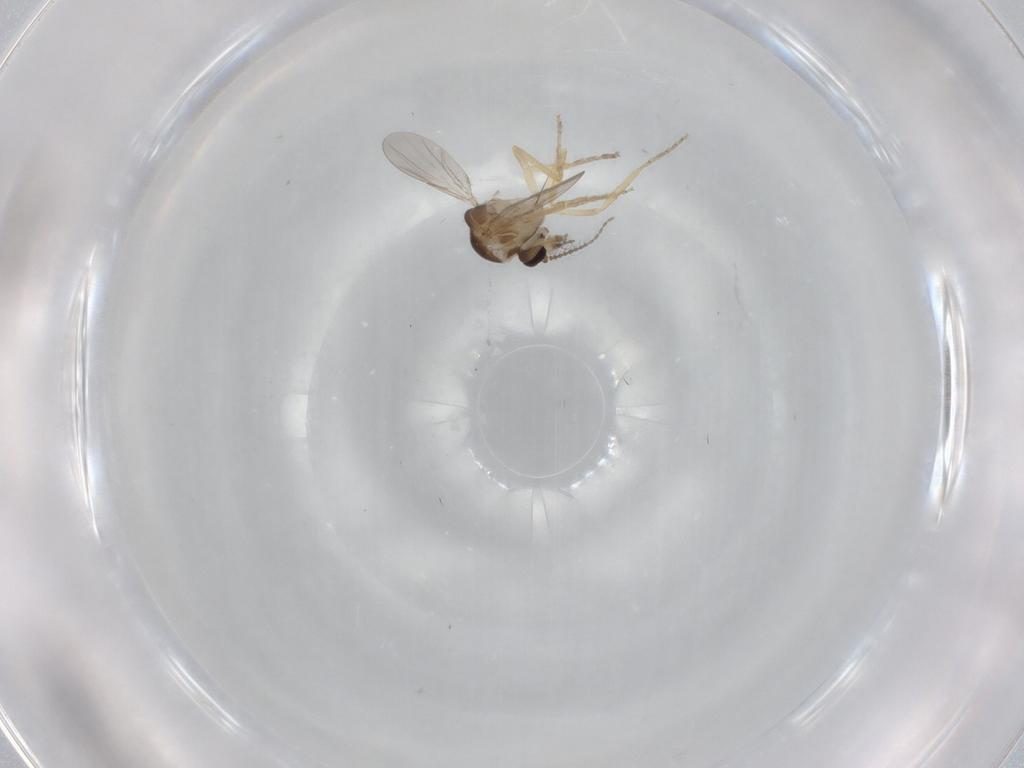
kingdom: Animalia
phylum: Arthropoda
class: Insecta
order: Diptera
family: Ceratopogonidae
